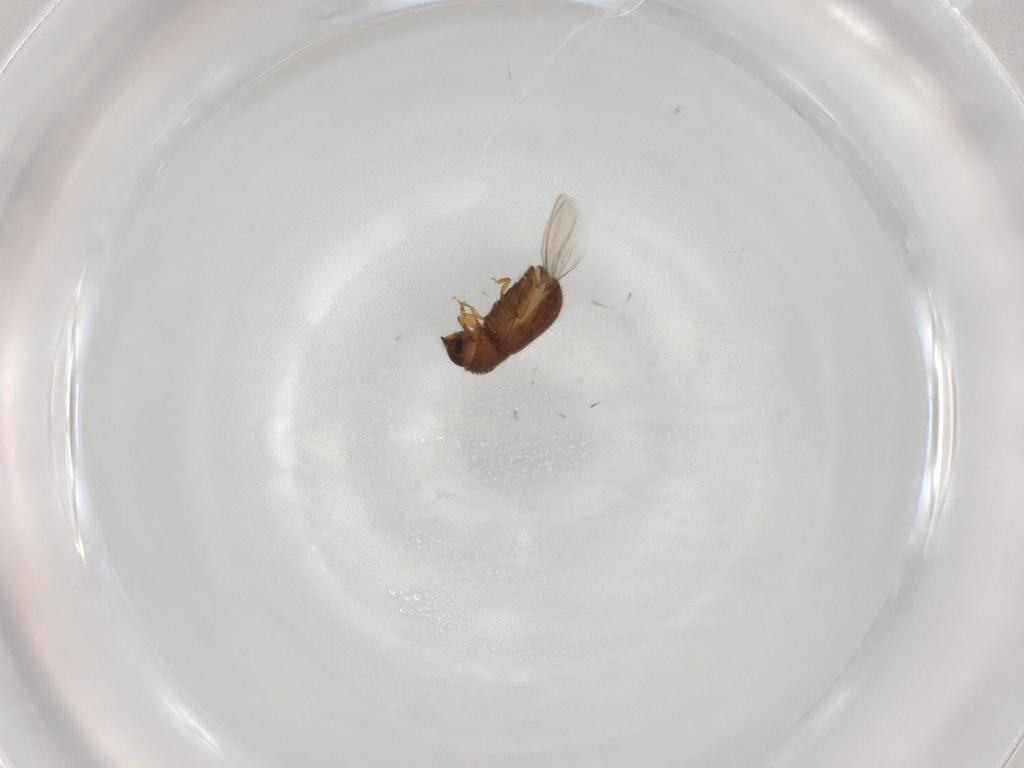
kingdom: Animalia
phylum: Arthropoda
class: Insecta
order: Coleoptera
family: Curculionidae
